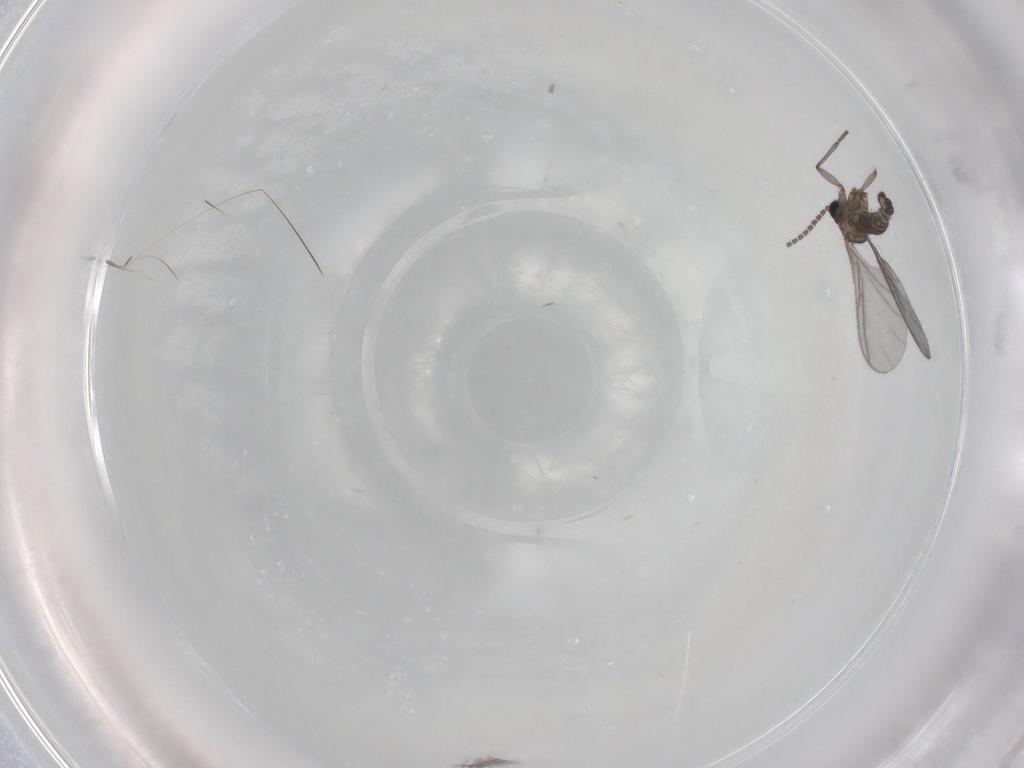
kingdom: Animalia
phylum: Arthropoda
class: Insecta
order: Diptera
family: Sciaridae
